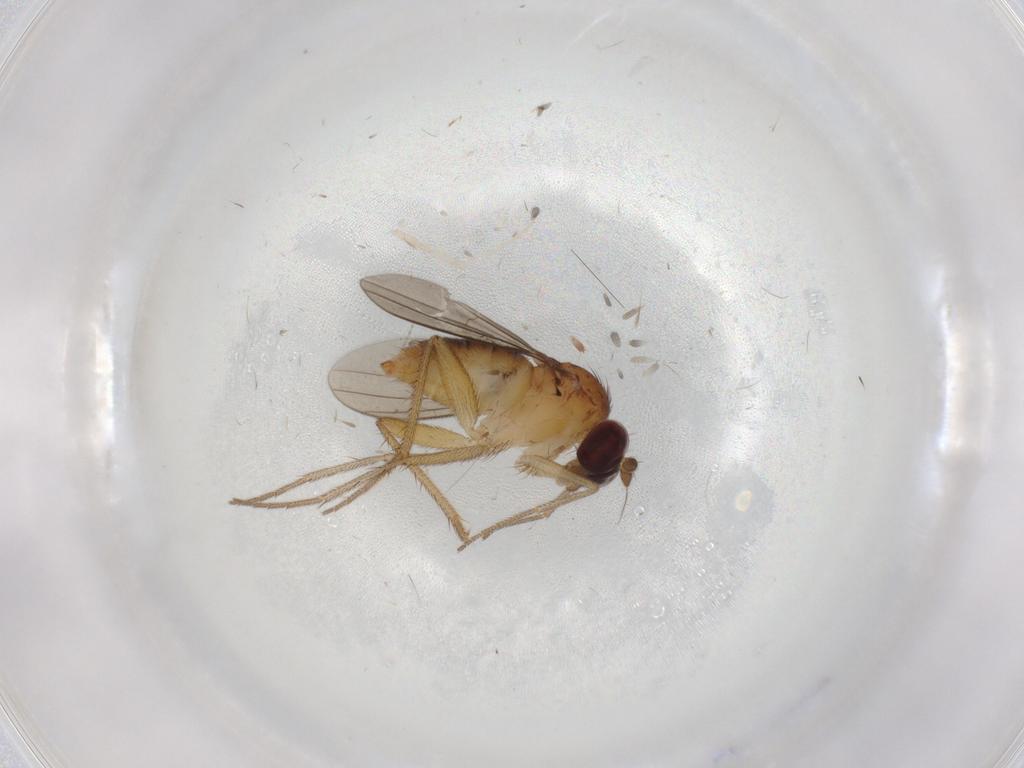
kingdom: Animalia
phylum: Arthropoda
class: Insecta
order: Diptera
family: Dolichopodidae
